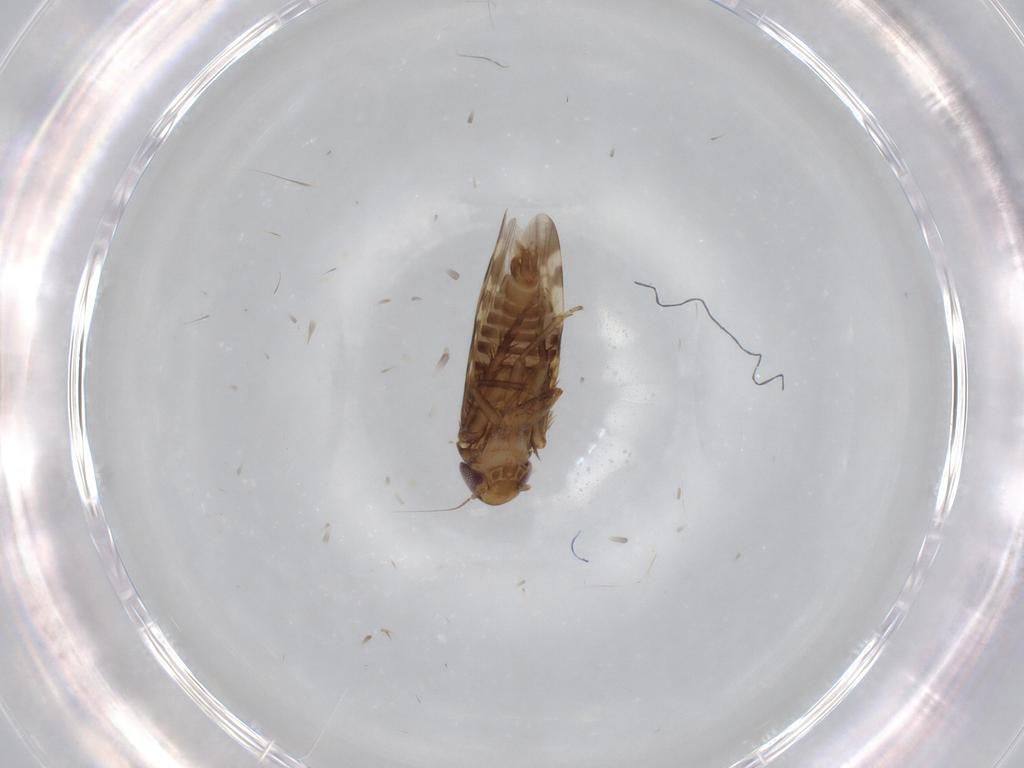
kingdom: Animalia
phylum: Arthropoda
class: Insecta
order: Hemiptera
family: Cicadellidae
